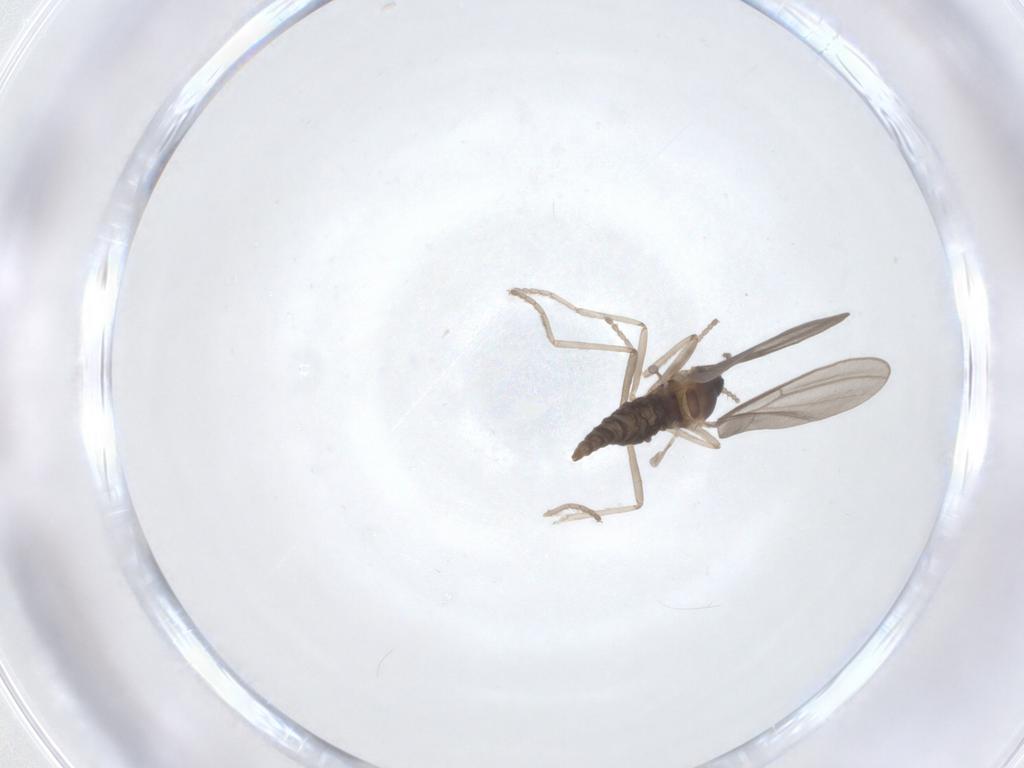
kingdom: Animalia
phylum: Arthropoda
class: Insecta
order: Diptera
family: Cecidomyiidae
